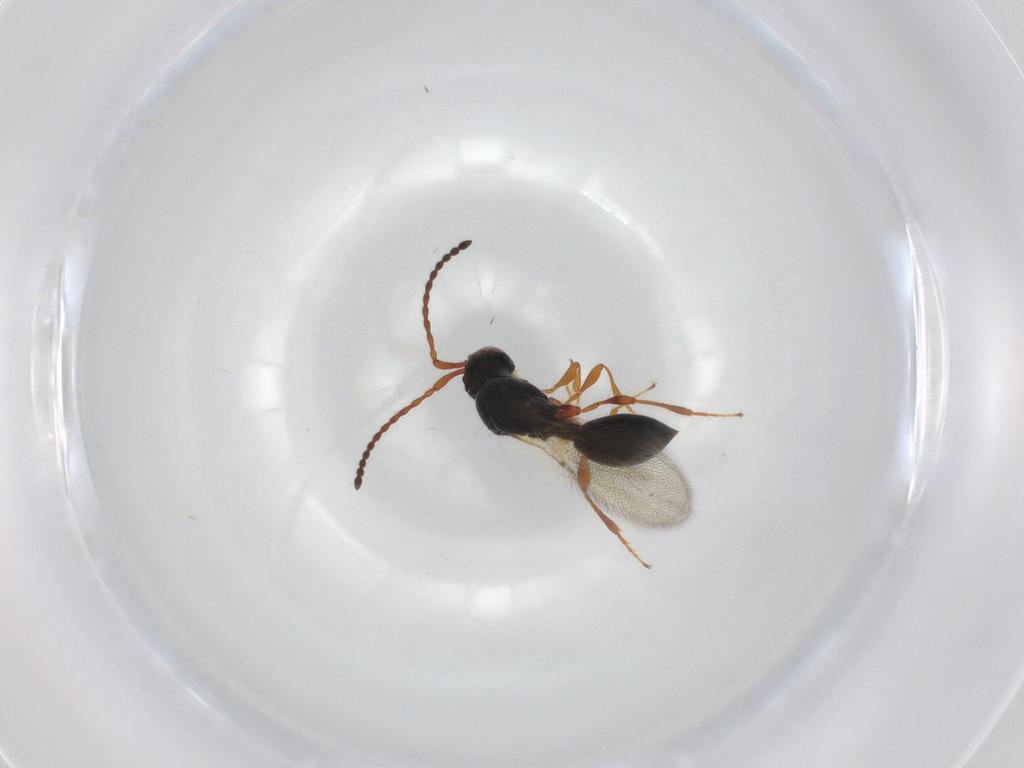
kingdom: Animalia
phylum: Arthropoda
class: Insecta
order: Hymenoptera
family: Diapriidae
